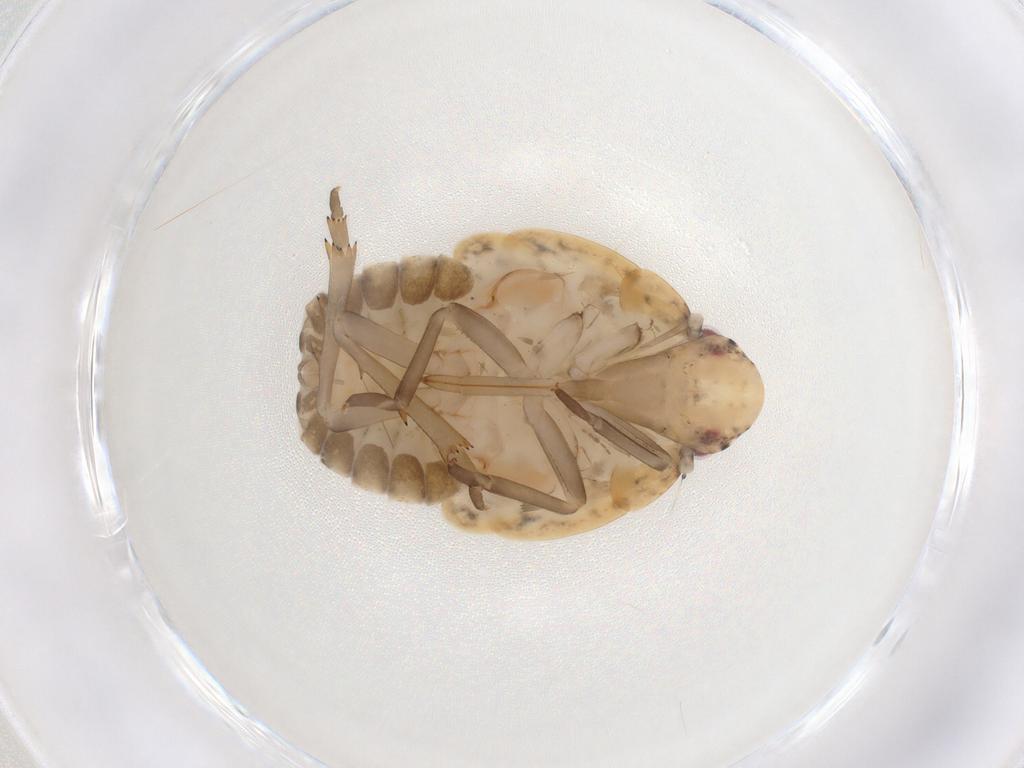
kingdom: Animalia
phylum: Arthropoda
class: Insecta
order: Hemiptera
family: Flatidae
